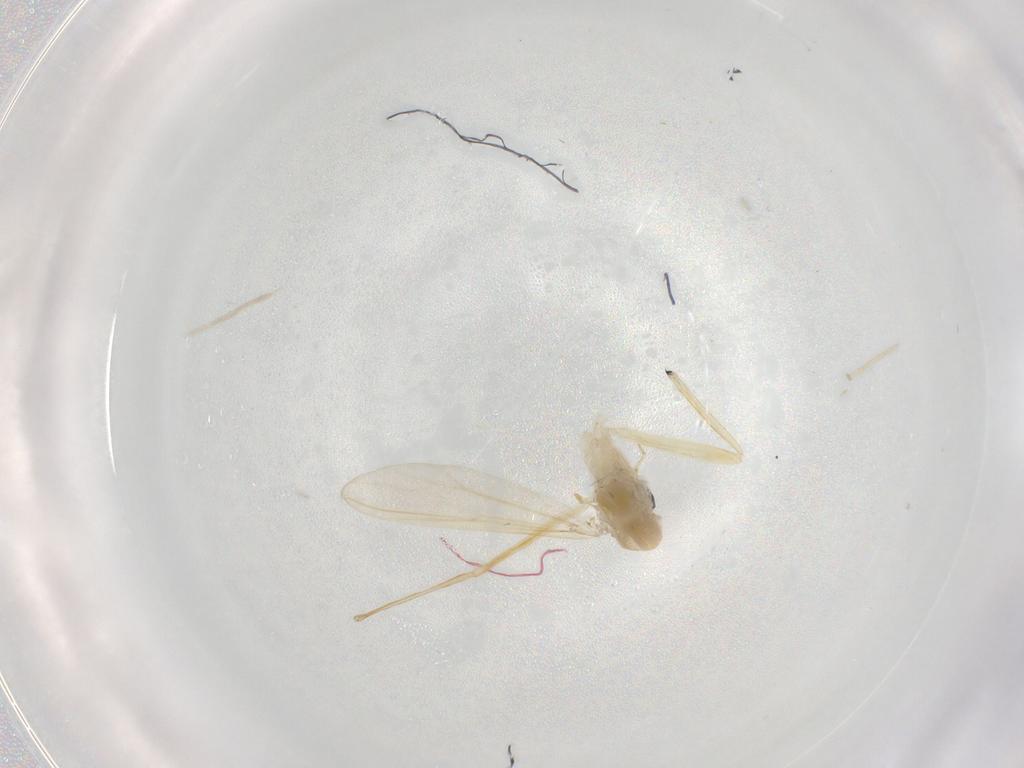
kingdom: Animalia
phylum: Arthropoda
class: Insecta
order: Diptera
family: Chironomidae
